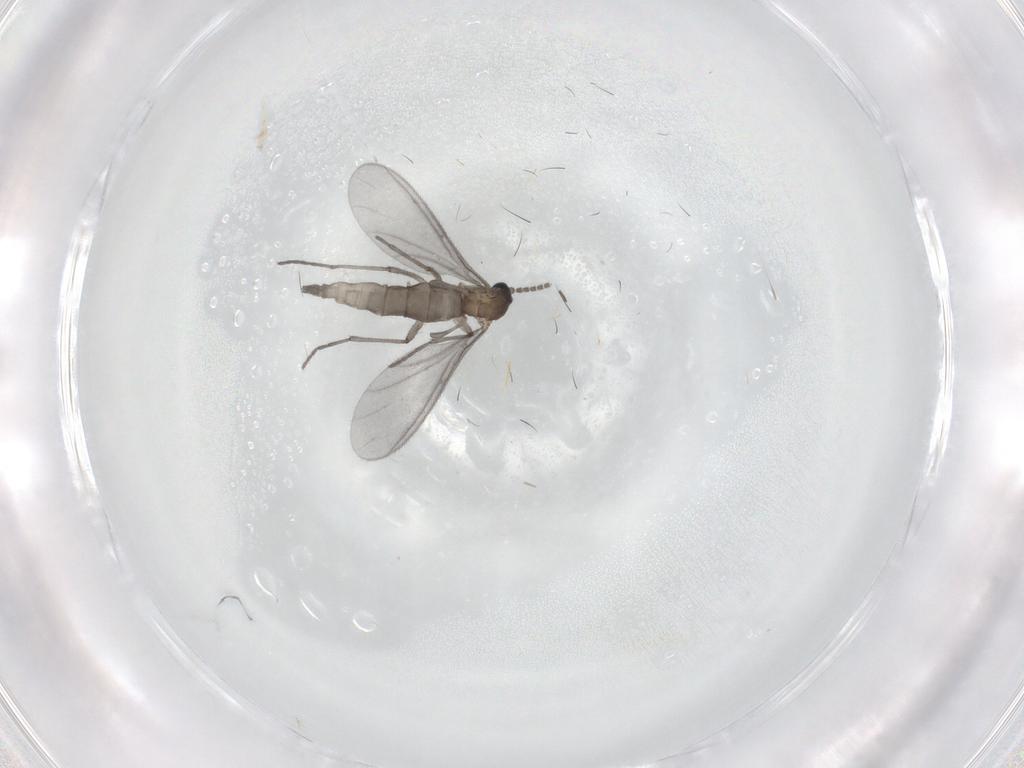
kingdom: Animalia
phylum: Arthropoda
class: Insecta
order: Diptera
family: Sciaridae
